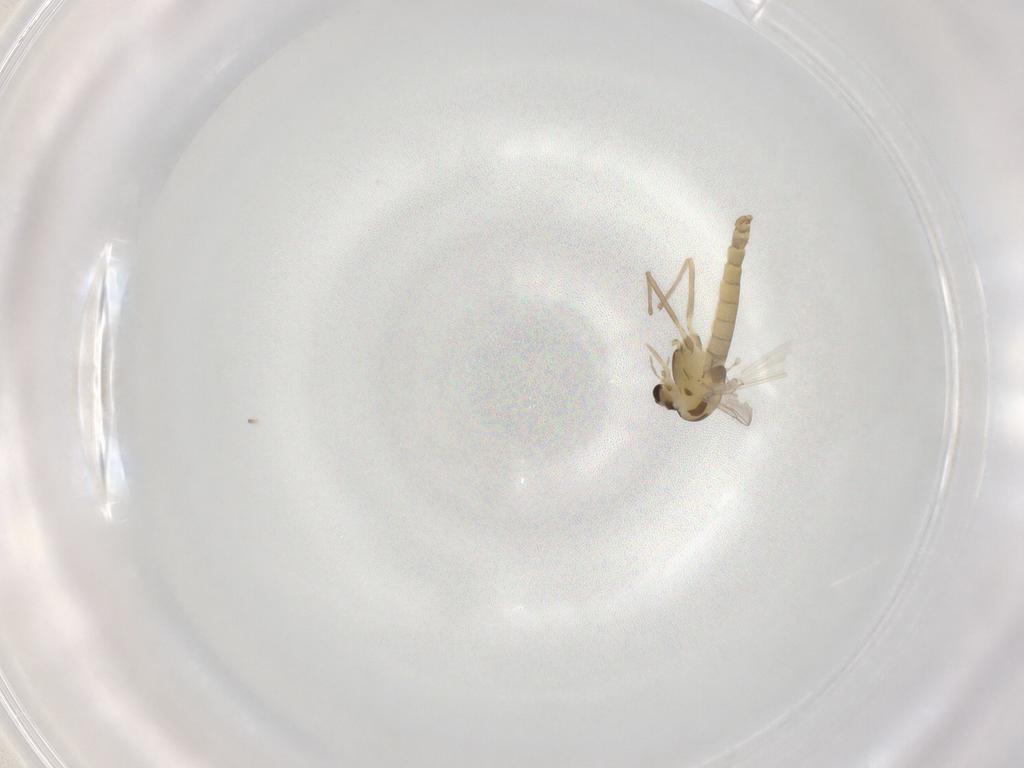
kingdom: Animalia
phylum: Arthropoda
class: Insecta
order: Diptera
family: Chironomidae
